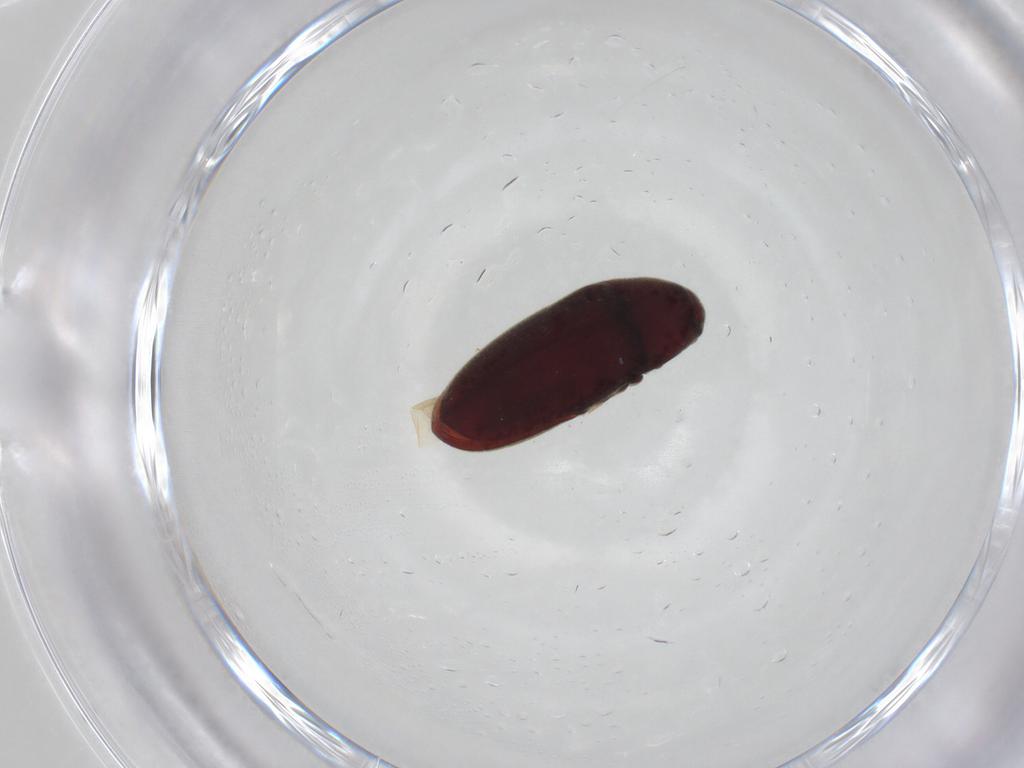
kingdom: Animalia
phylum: Arthropoda
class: Insecta
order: Coleoptera
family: Throscidae
